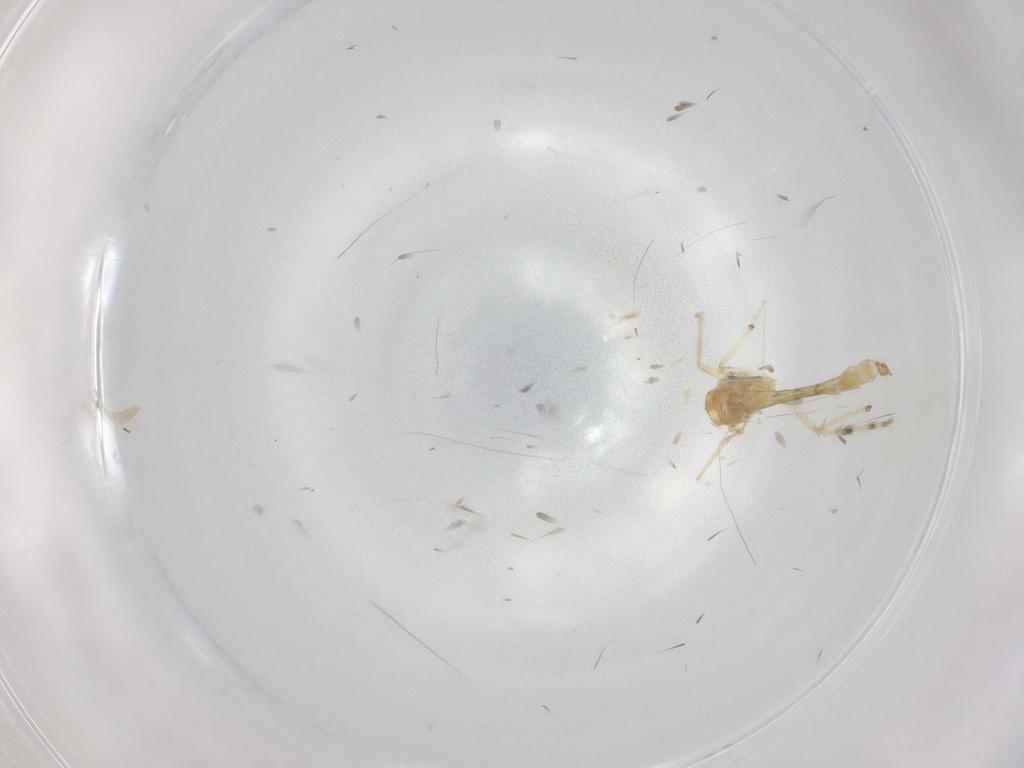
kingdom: Animalia
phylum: Arthropoda
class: Insecta
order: Diptera
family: Chironomidae
